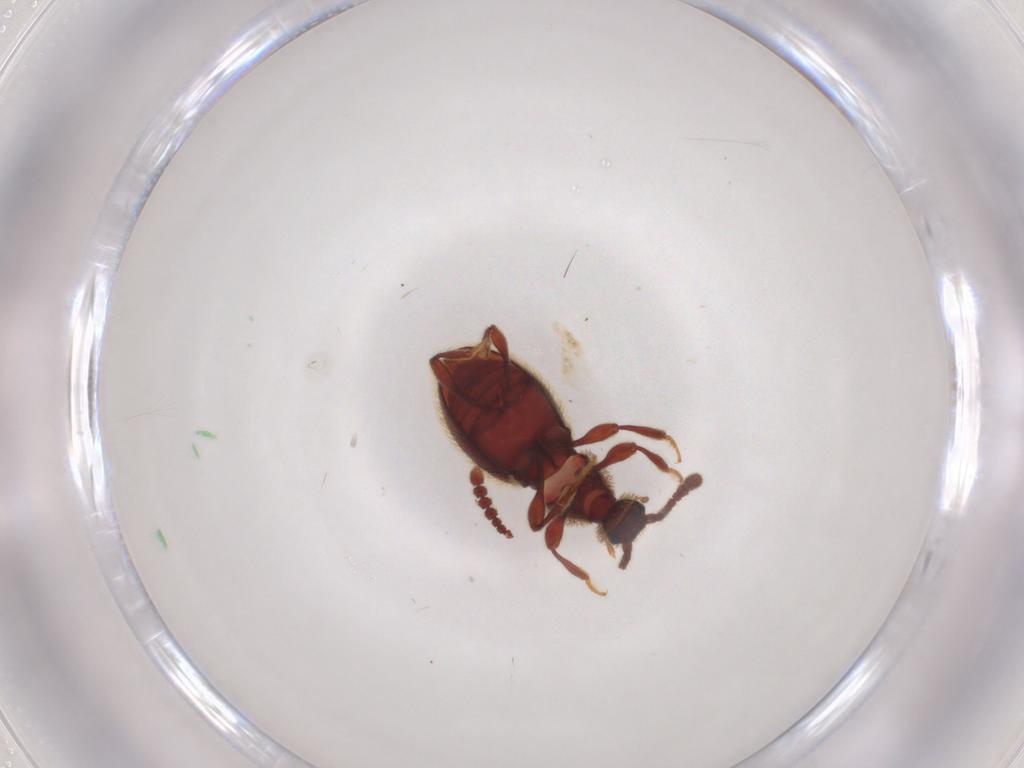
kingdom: Animalia
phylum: Arthropoda
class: Insecta
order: Coleoptera
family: Staphylinidae
